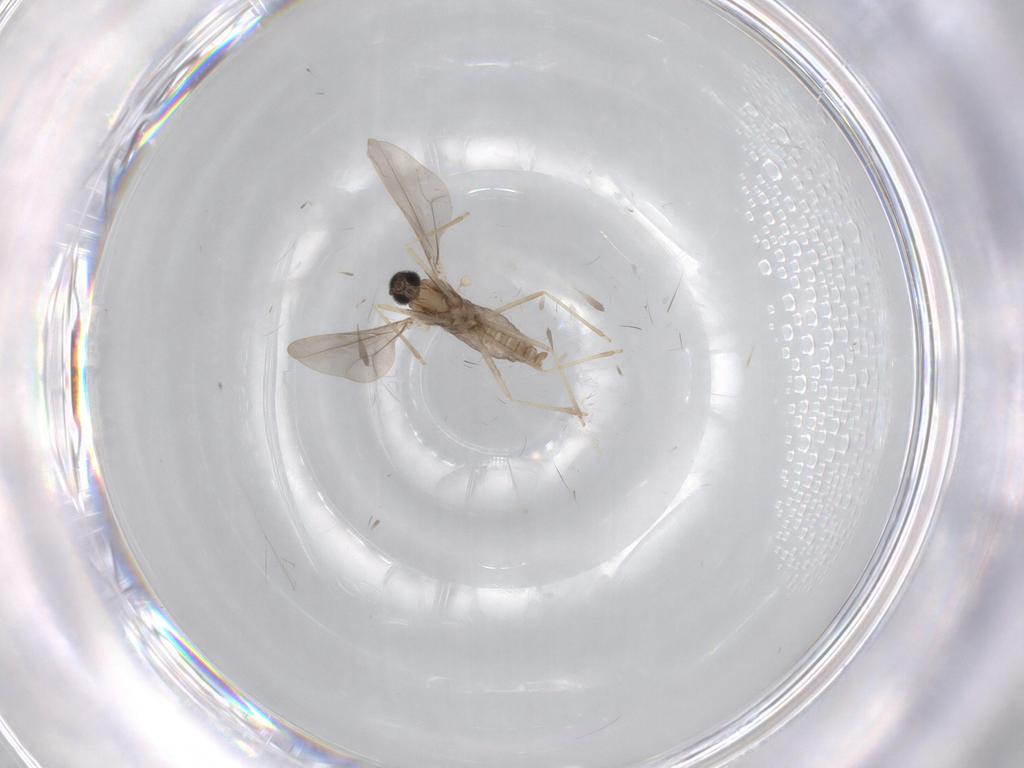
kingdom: Animalia
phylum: Arthropoda
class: Insecta
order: Diptera
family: Cecidomyiidae
